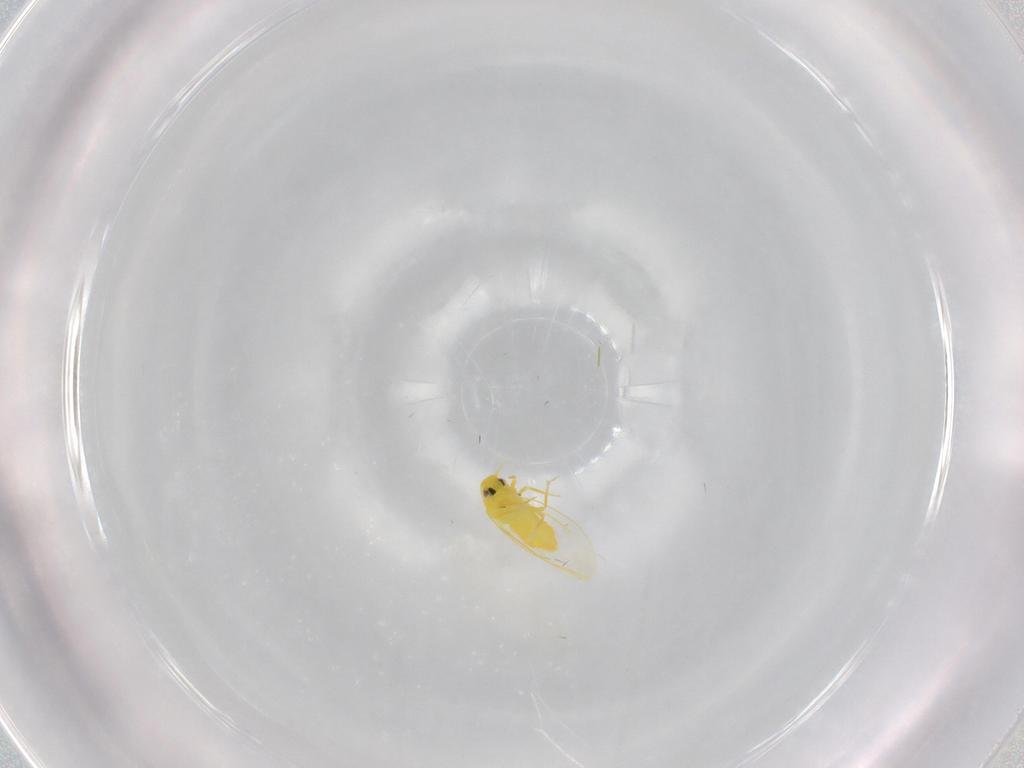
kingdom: Animalia
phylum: Arthropoda
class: Insecta
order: Hemiptera
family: Aleyrodidae
